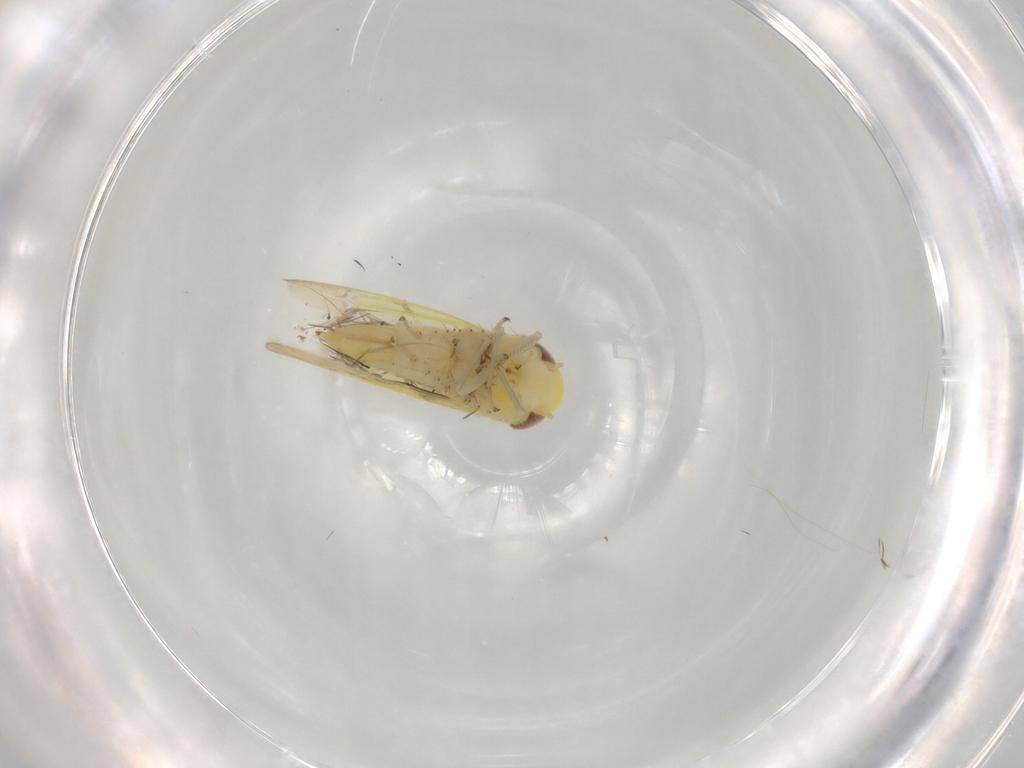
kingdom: Animalia
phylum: Arthropoda
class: Insecta
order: Hemiptera
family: Cicadellidae
